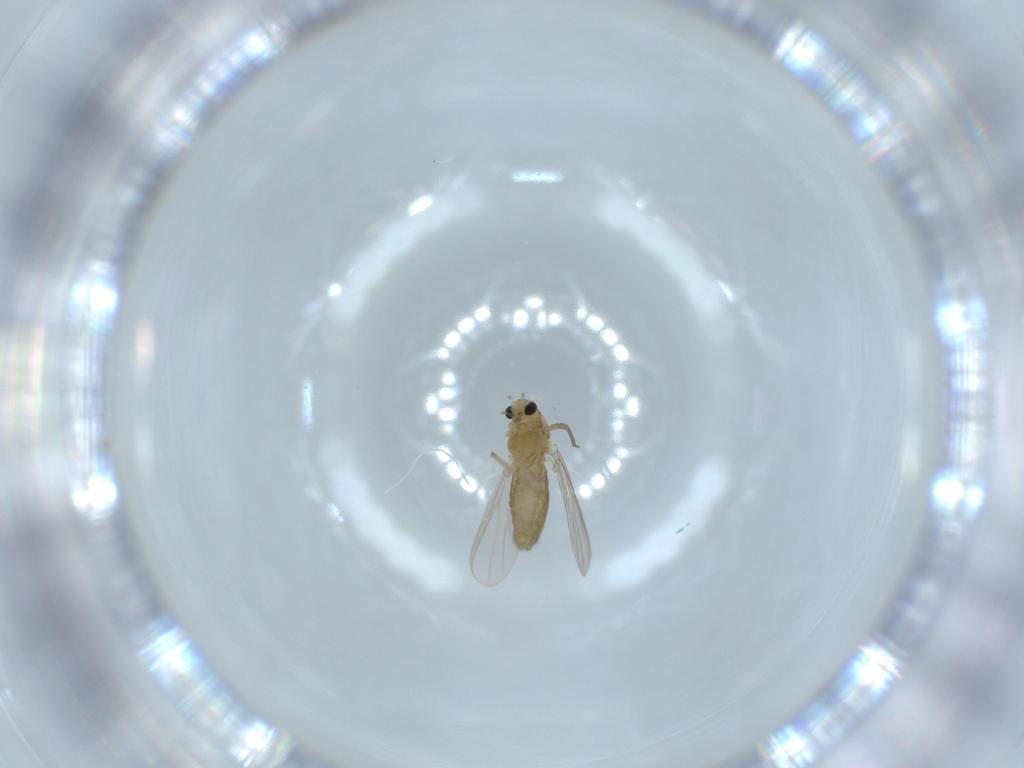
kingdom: Animalia
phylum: Arthropoda
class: Insecta
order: Diptera
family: Chironomidae
